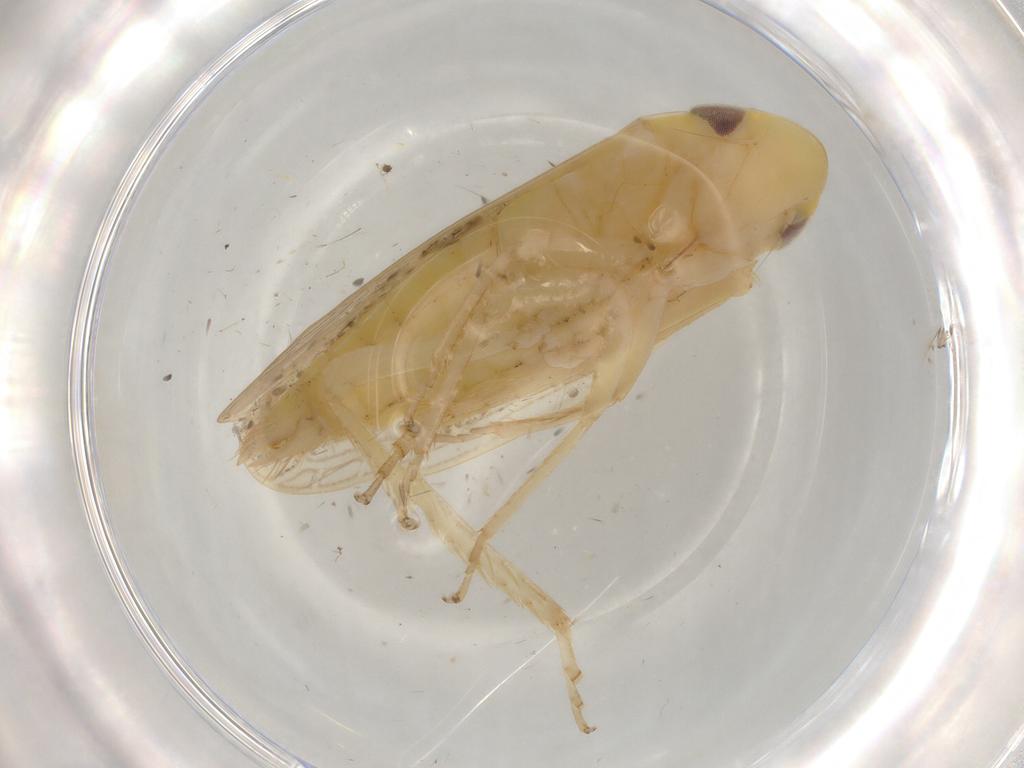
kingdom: Animalia
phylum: Arthropoda
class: Insecta
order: Hemiptera
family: Cicadellidae
